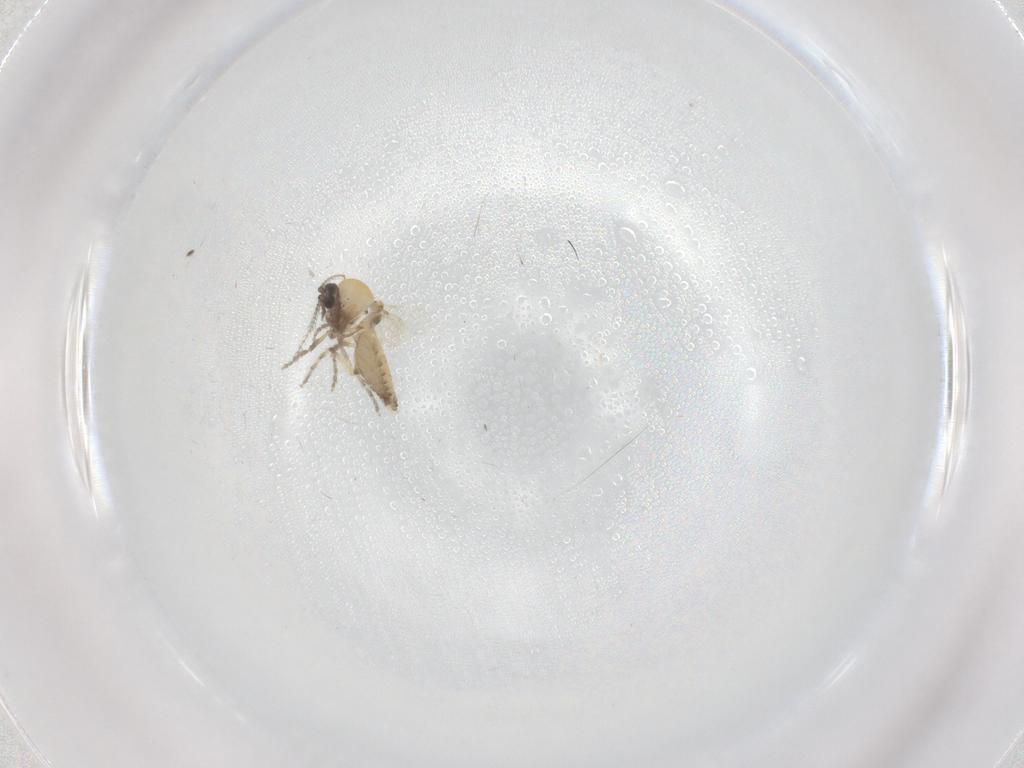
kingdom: Animalia
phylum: Arthropoda
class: Insecta
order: Diptera
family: Ceratopogonidae
